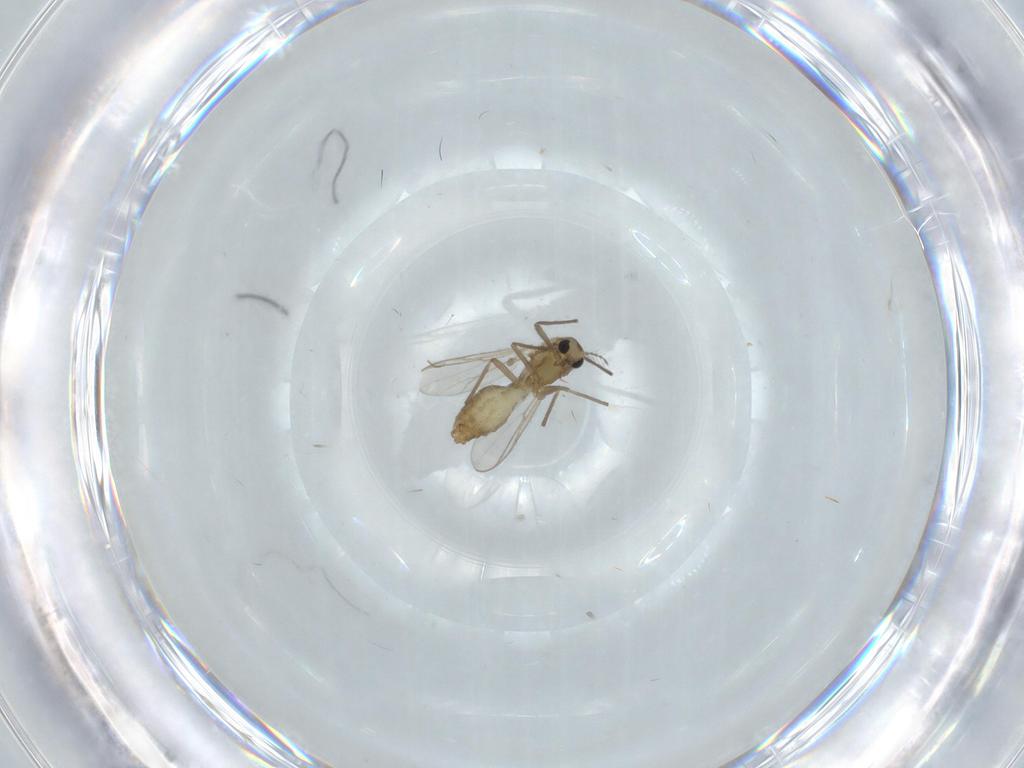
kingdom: Animalia
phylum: Arthropoda
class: Insecta
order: Diptera
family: Chironomidae
